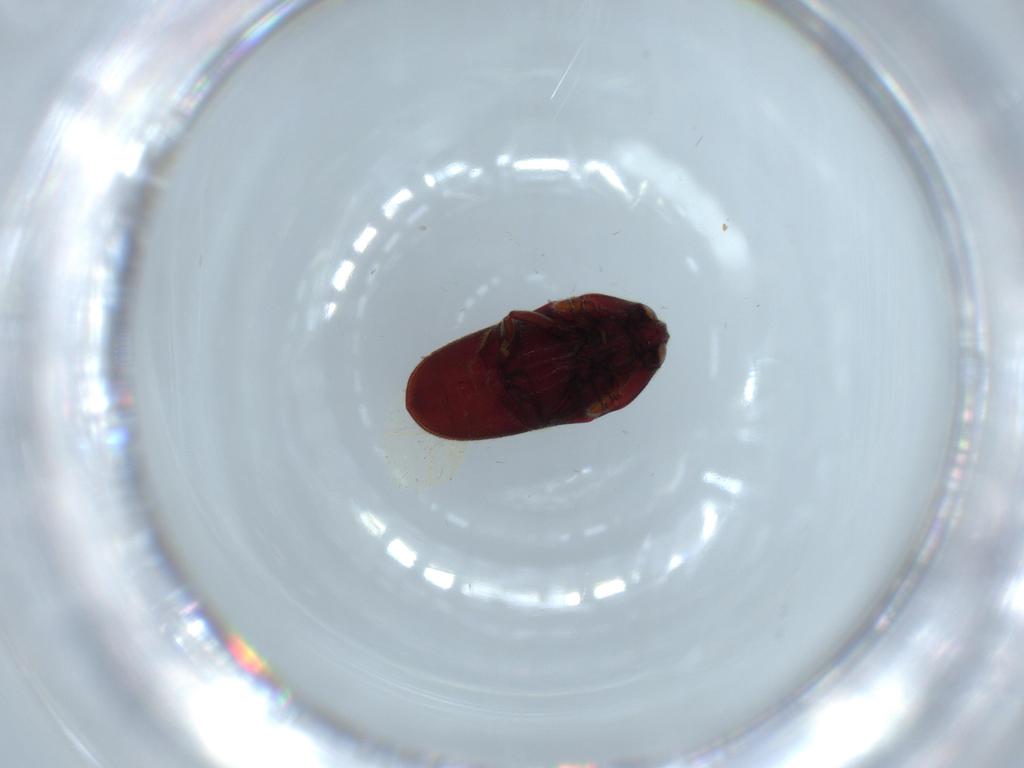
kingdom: Animalia
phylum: Arthropoda
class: Insecta
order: Coleoptera
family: Throscidae
